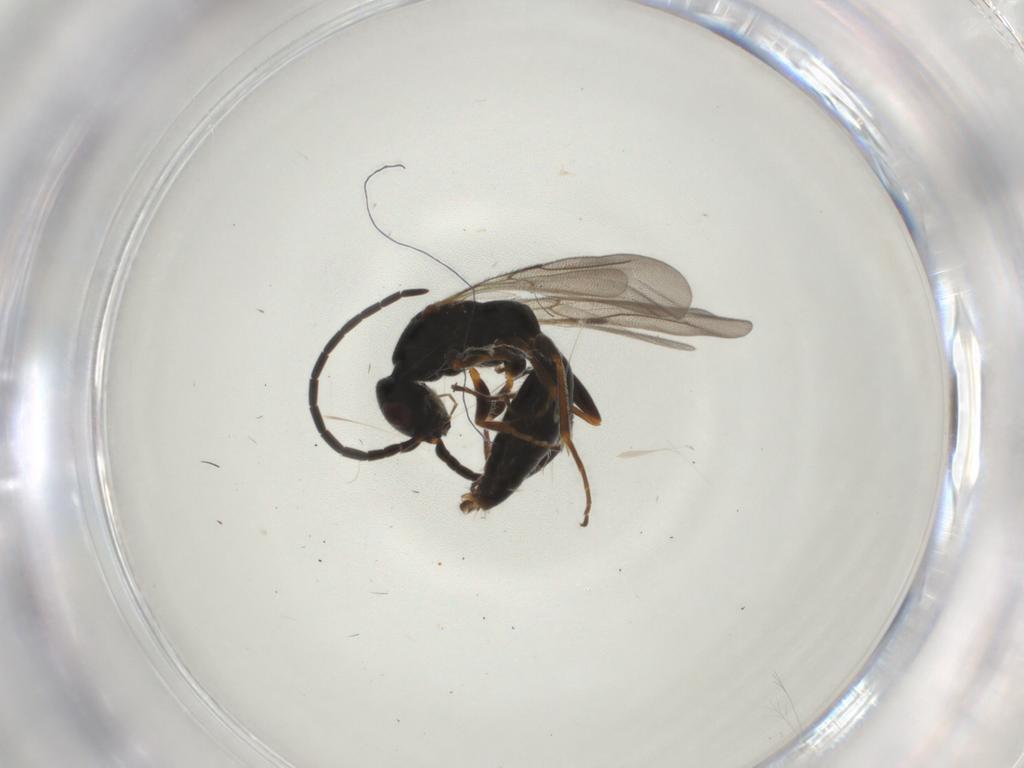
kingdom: Animalia
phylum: Arthropoda
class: Insecta
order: Hymenoptera
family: Bethylidae
